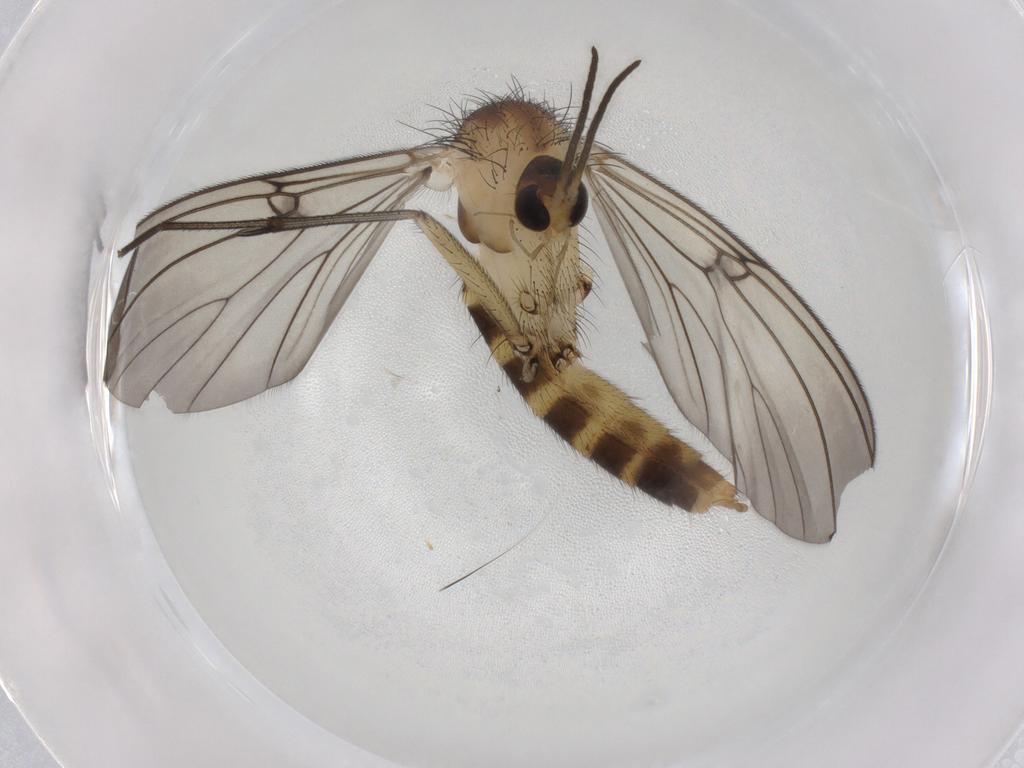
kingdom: Animalia
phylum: Arthropoda
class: Insecta
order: Diptera
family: Mycetophilidae
